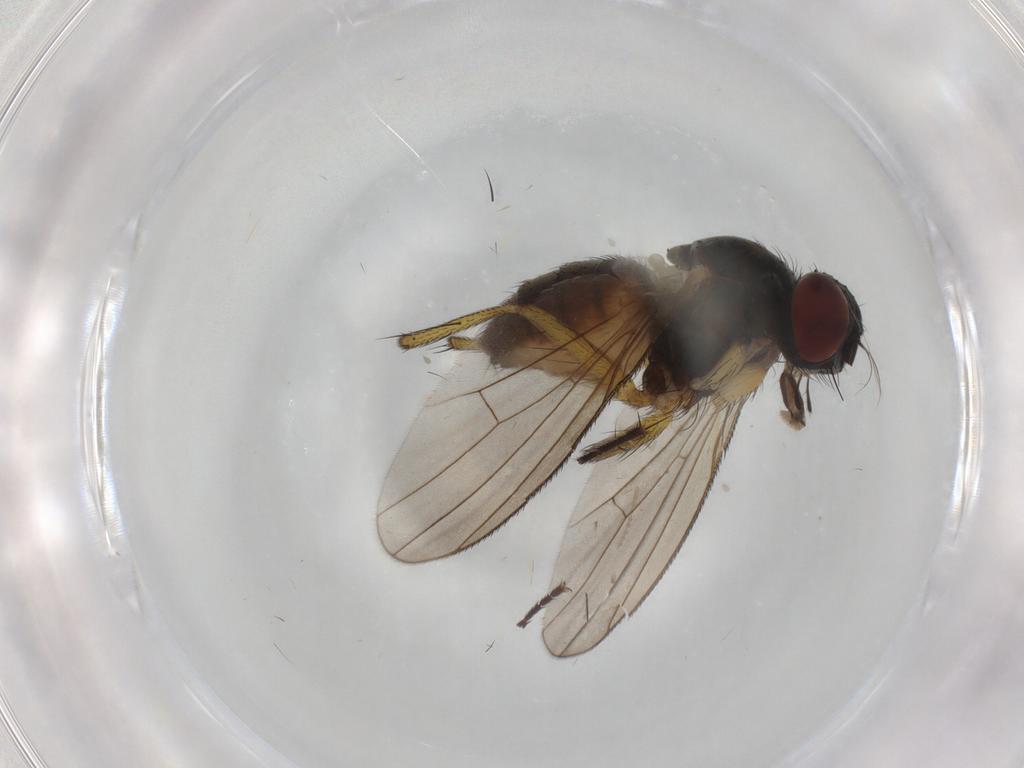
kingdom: Animalia
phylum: Arthropoda
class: Insecta
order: Diptera
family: Muscidae
